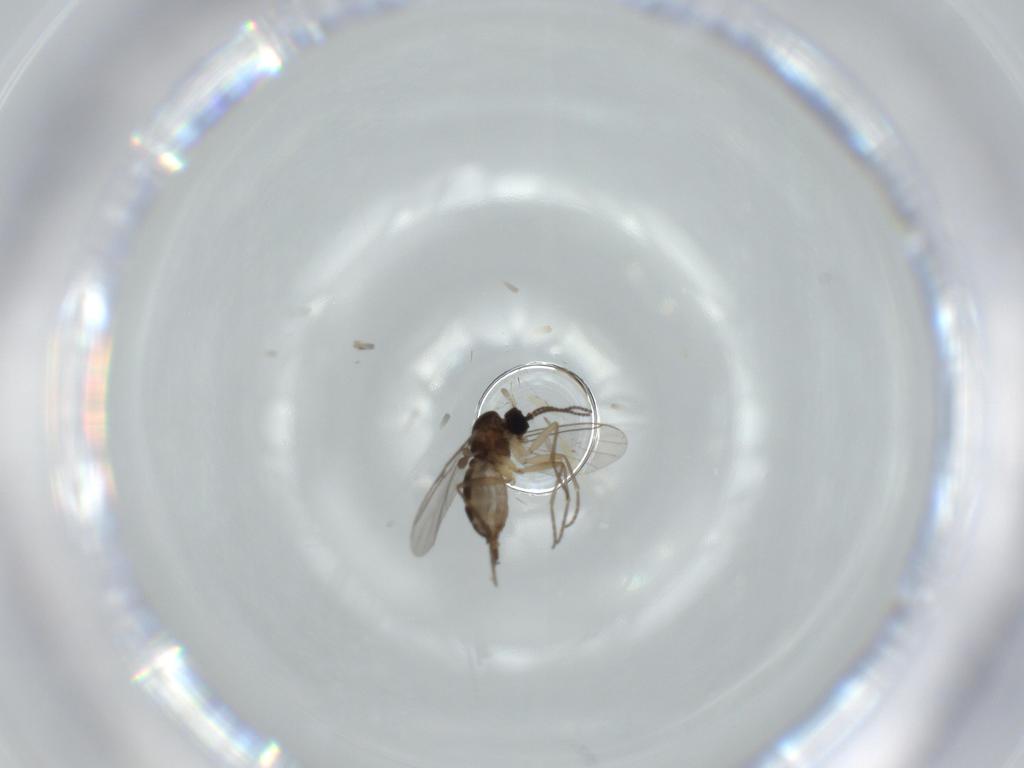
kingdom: Animalia
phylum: Arthropoda
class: Insecta
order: Diptera
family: Sciaridae
